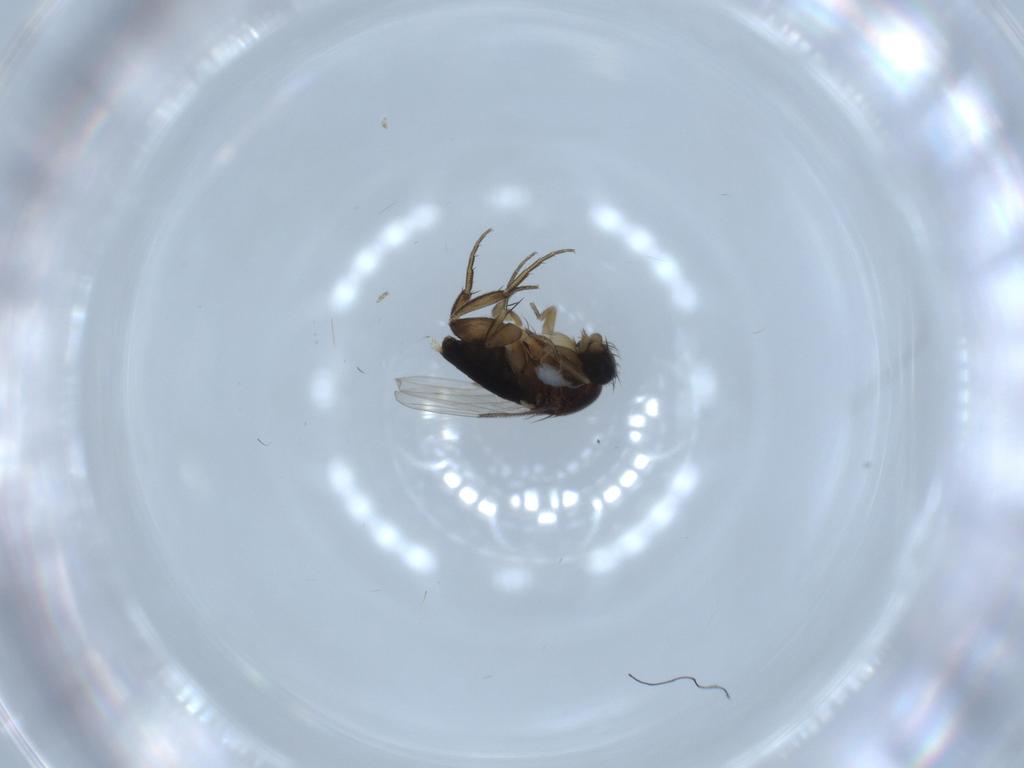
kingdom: Animalia
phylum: Arthropoda
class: Insecta
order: Diptera
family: Phoridae
